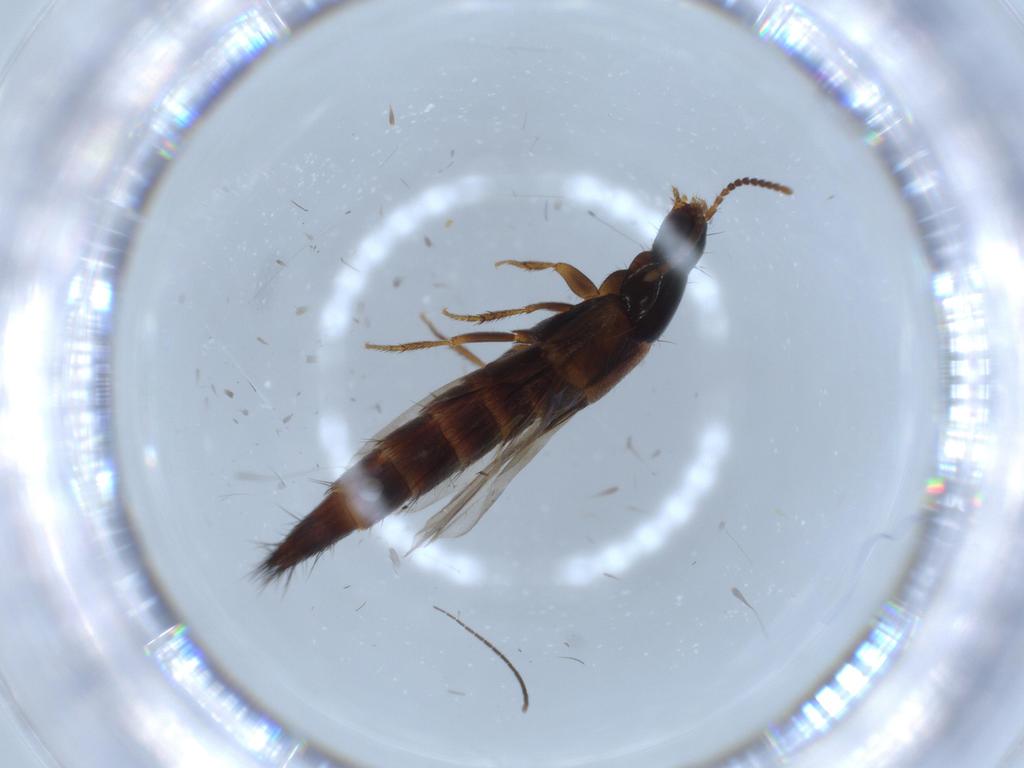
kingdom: Animalia
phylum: Arthropoda
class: Insecta
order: Coleoptera
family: Staphylinidae
